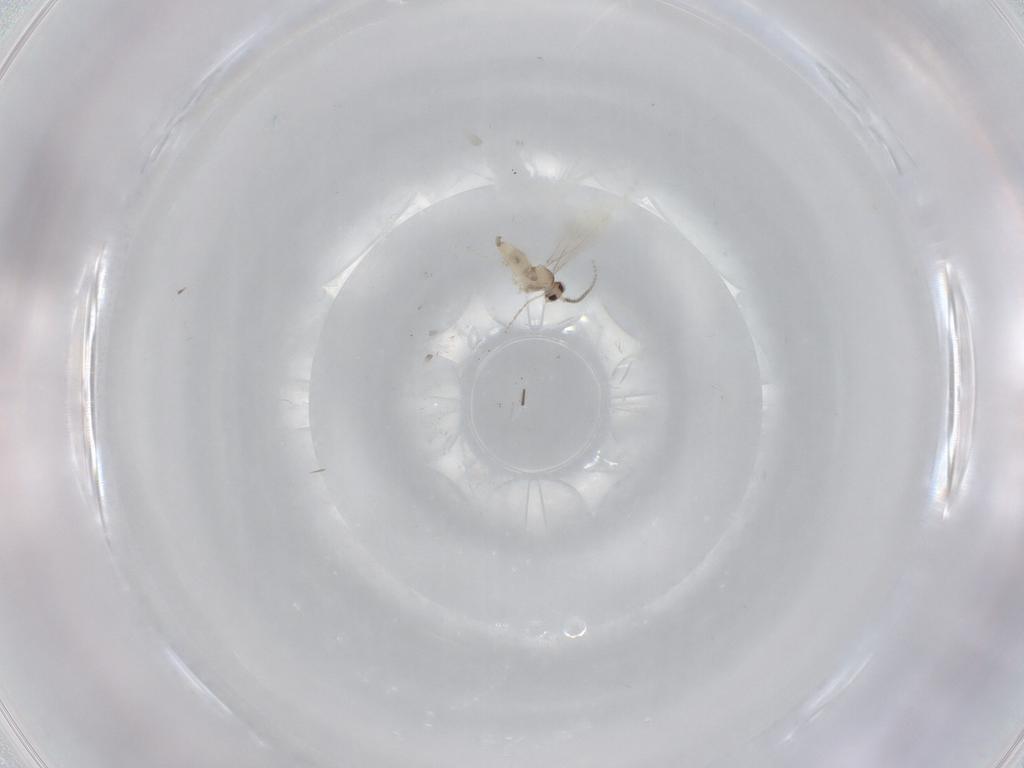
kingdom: Animalia
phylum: Arthropoda
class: Insecta
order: Diptera
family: Cecidomyiidae
